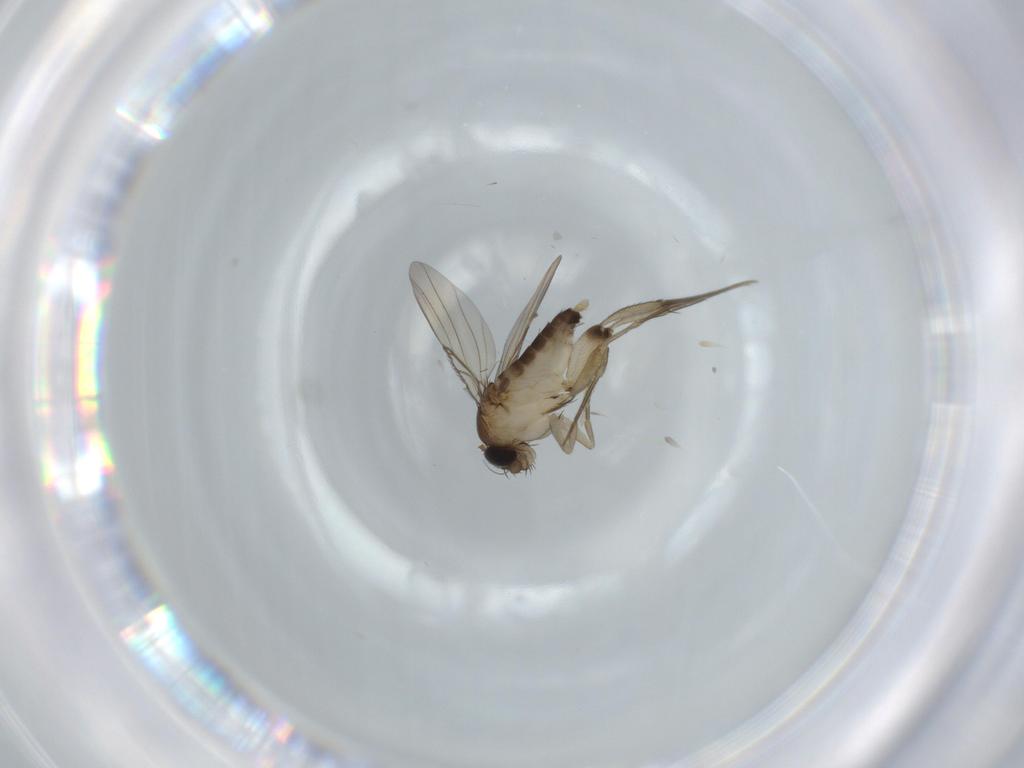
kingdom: Animalia
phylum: Arthropoda
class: Insecta
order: Diptera
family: Phoridae
